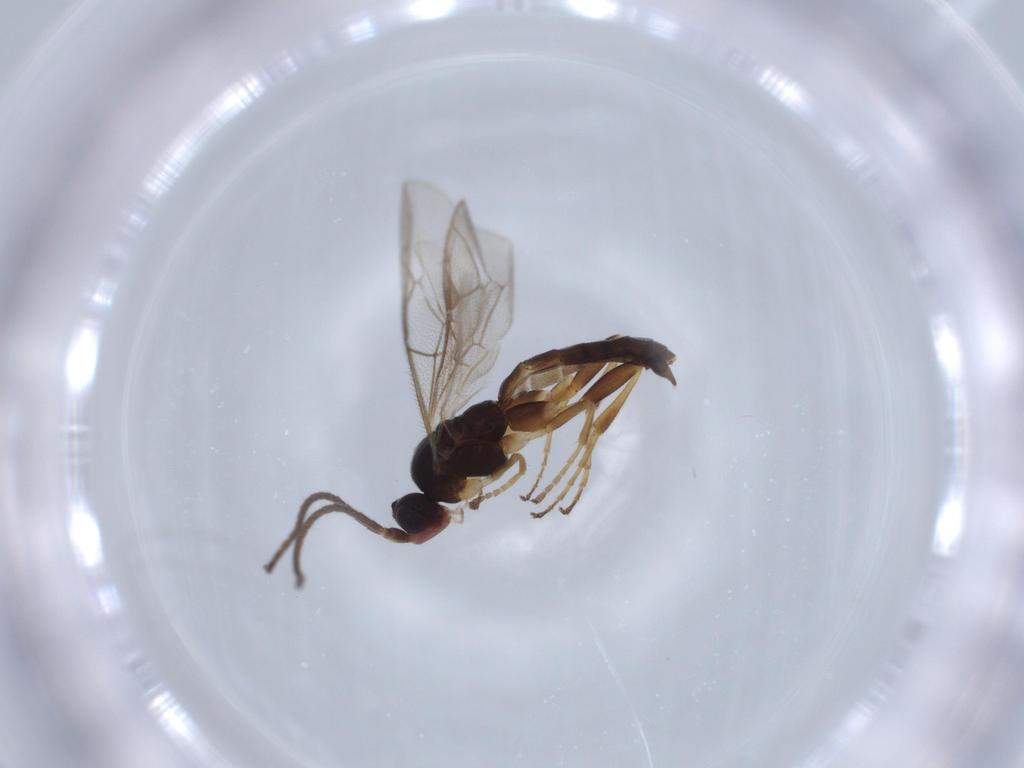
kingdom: Animalia
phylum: Arthropoda
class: Insecta
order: Hymenoptera
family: Ichneumonidae
